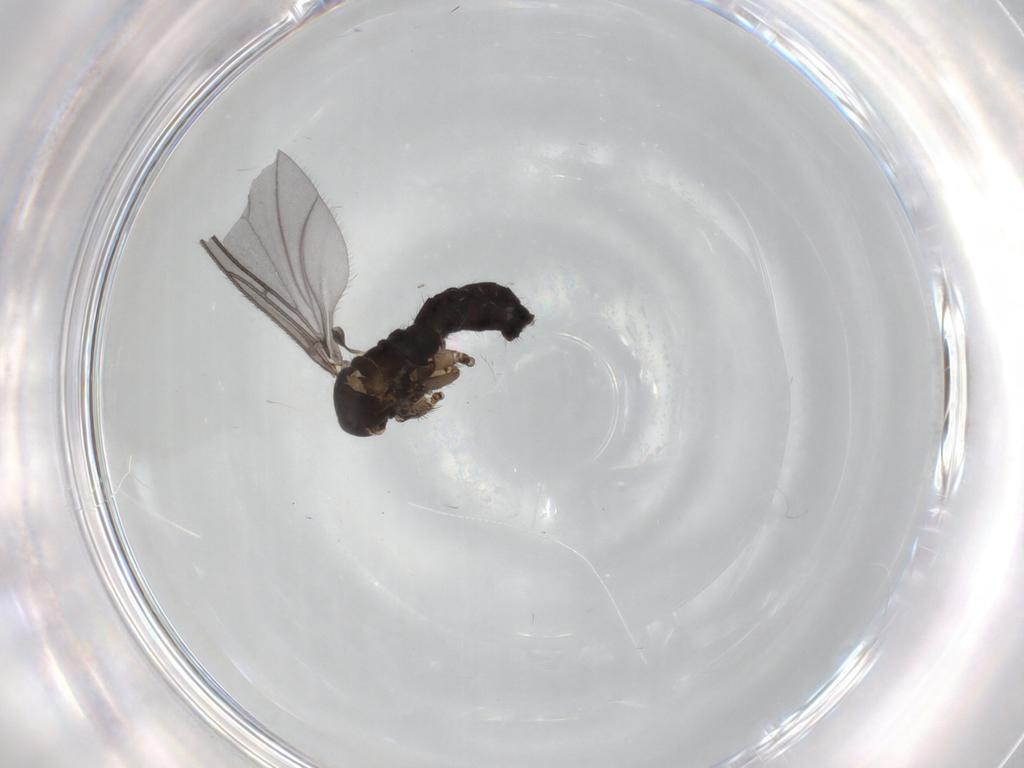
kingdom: Animalia
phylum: Arthropoda
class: Insecta
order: Diptera
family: Sciaridae
